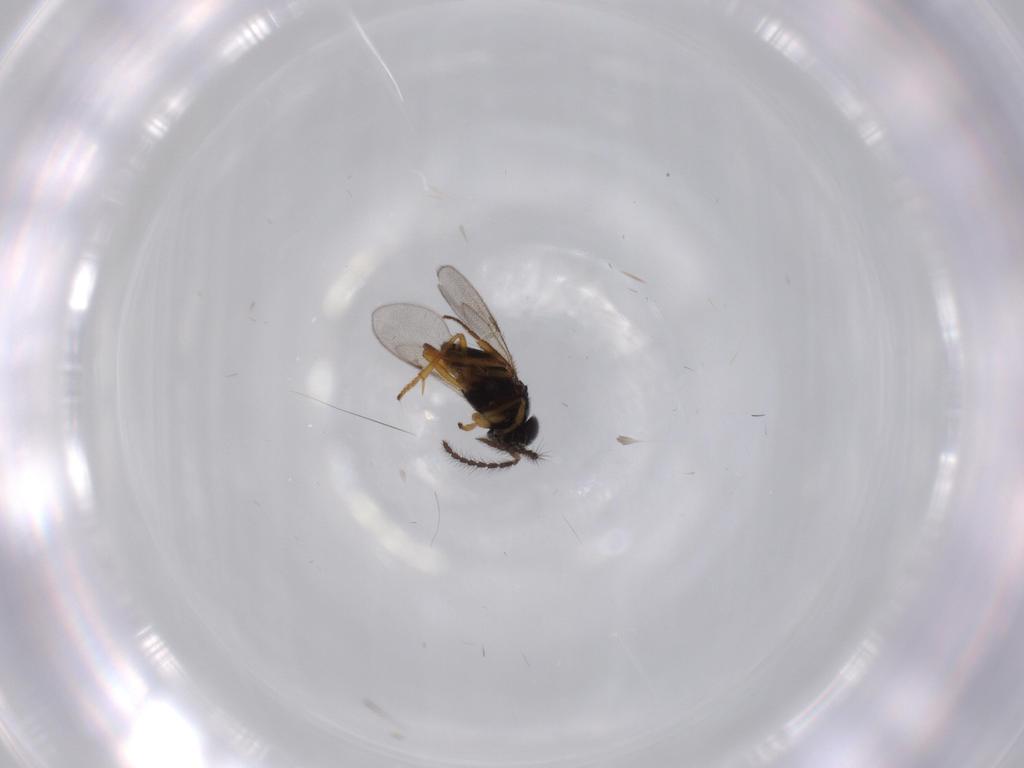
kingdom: Animalia
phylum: Arthropoda
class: Insecta
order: Hymenoptera
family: Encyrtidae
